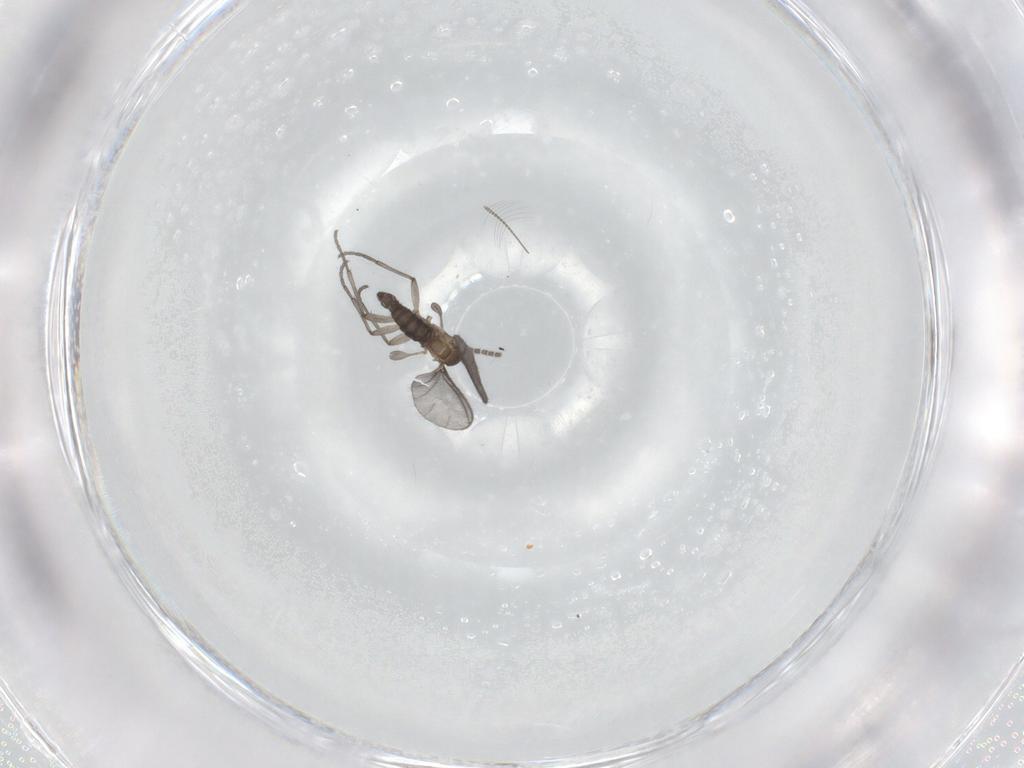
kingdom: Animalia
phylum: Arthropoda
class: Insecta
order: Diptera
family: Sciaridae
